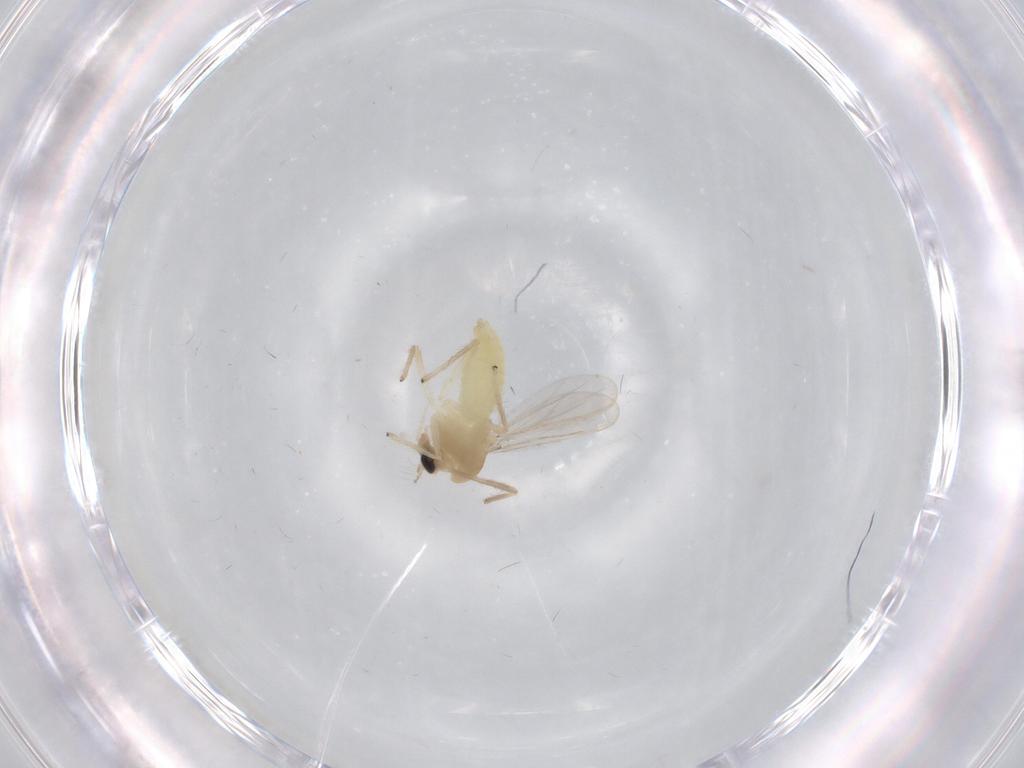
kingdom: Animalia
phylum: Arthropoda
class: Insecta
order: Diptera
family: Cecidomyiidae
